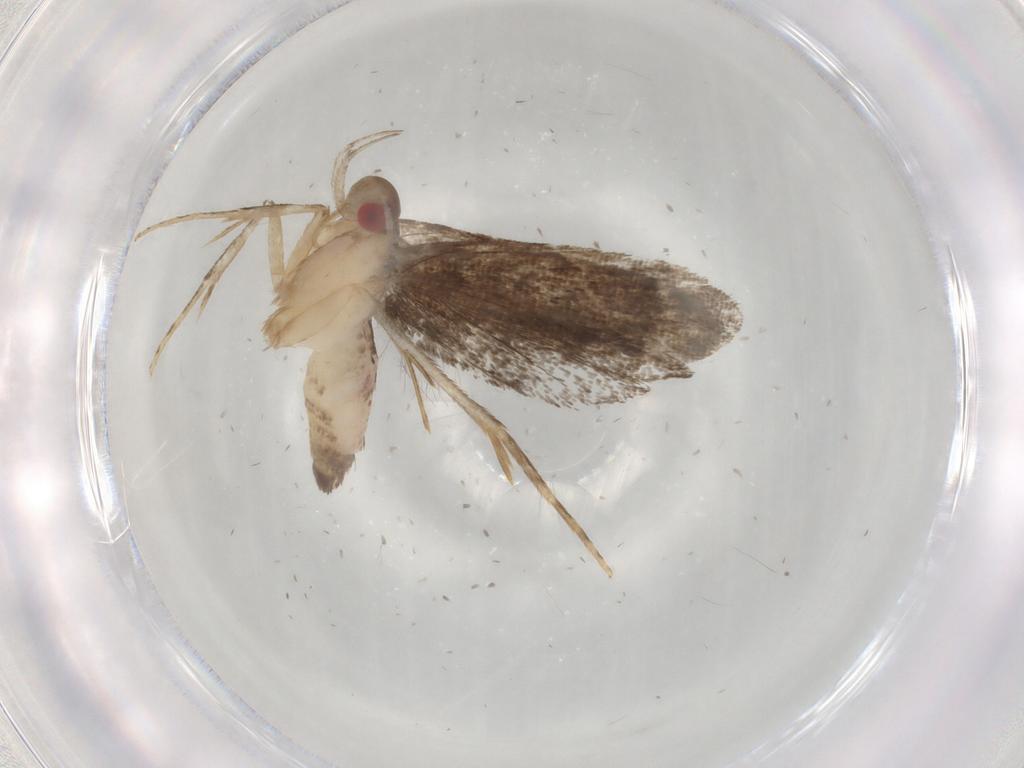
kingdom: Animalia
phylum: Arthropoda
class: Insecta
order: Lepidoptera
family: Gelechiidae
